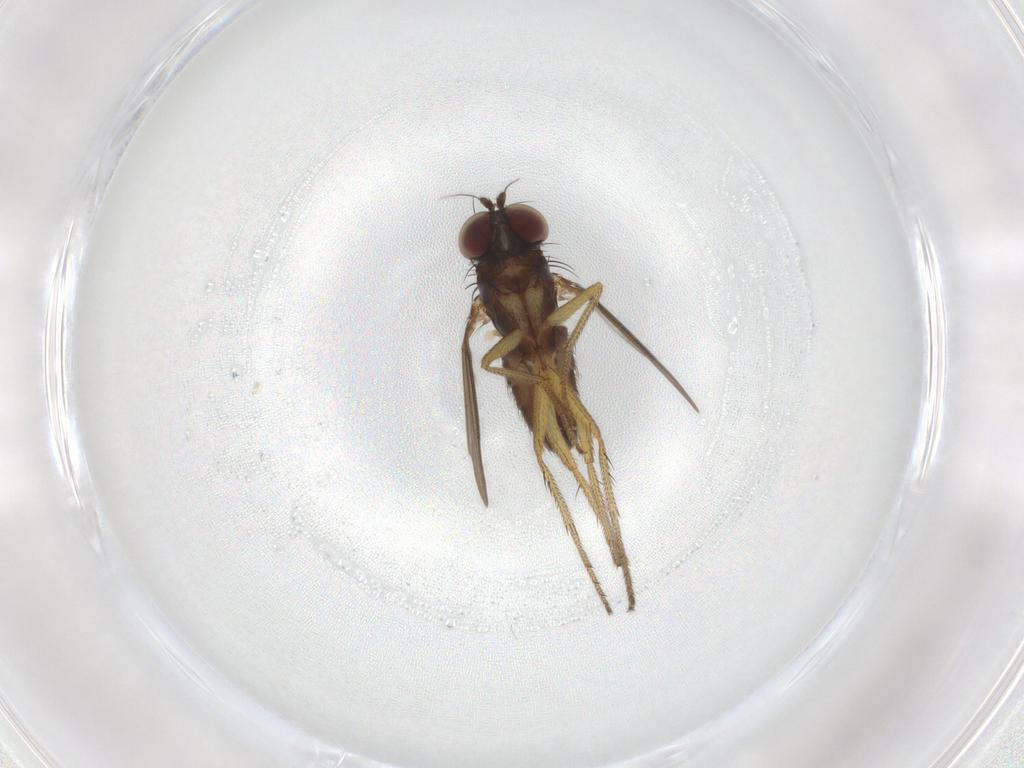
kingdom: Animalia
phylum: Arthropoda
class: Insecta
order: Diptera
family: Dolichopodidae
